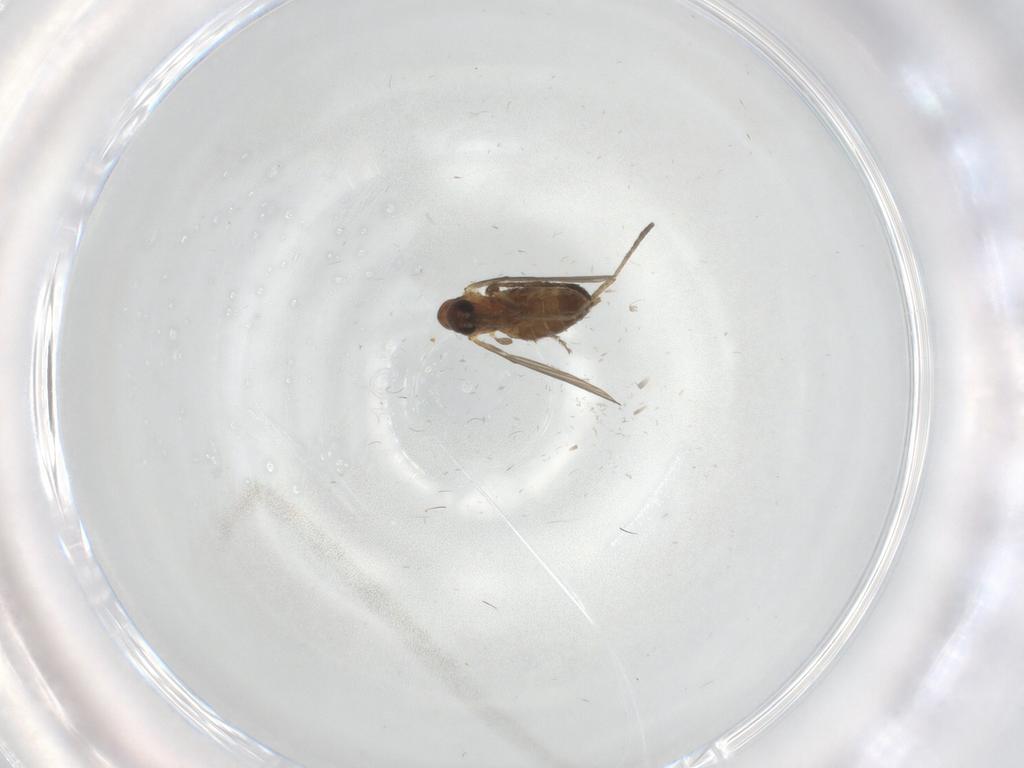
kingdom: Animalia
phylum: Arthropoda
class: Insecta
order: Diptera
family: Phoridae
